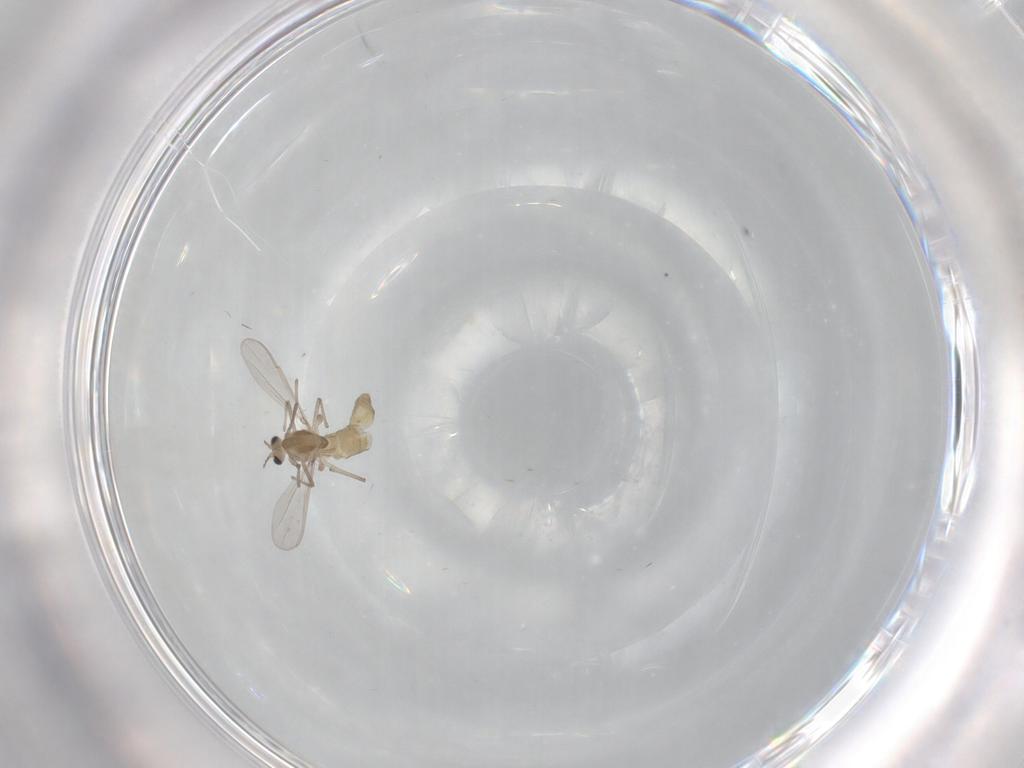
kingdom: Animalia
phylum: Arthropoda
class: Insecta
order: Diptera
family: Chironomidae
